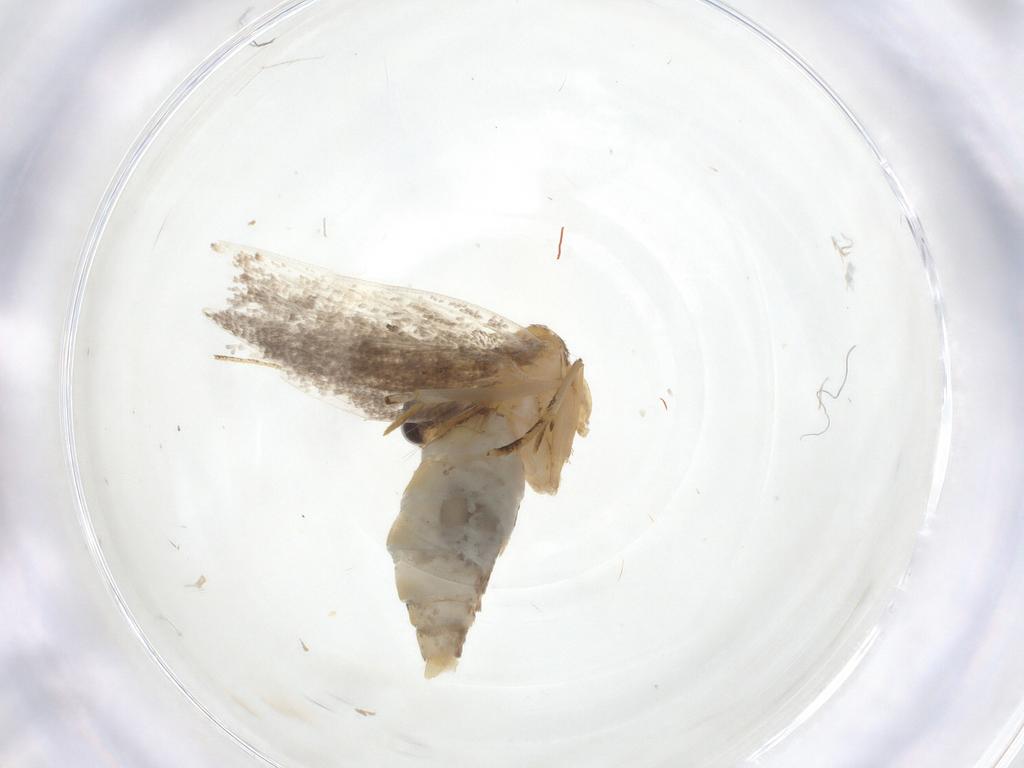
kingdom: Animalia
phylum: Arthropoda
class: Insecta
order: Lepidoptera
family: Oecophoridae
